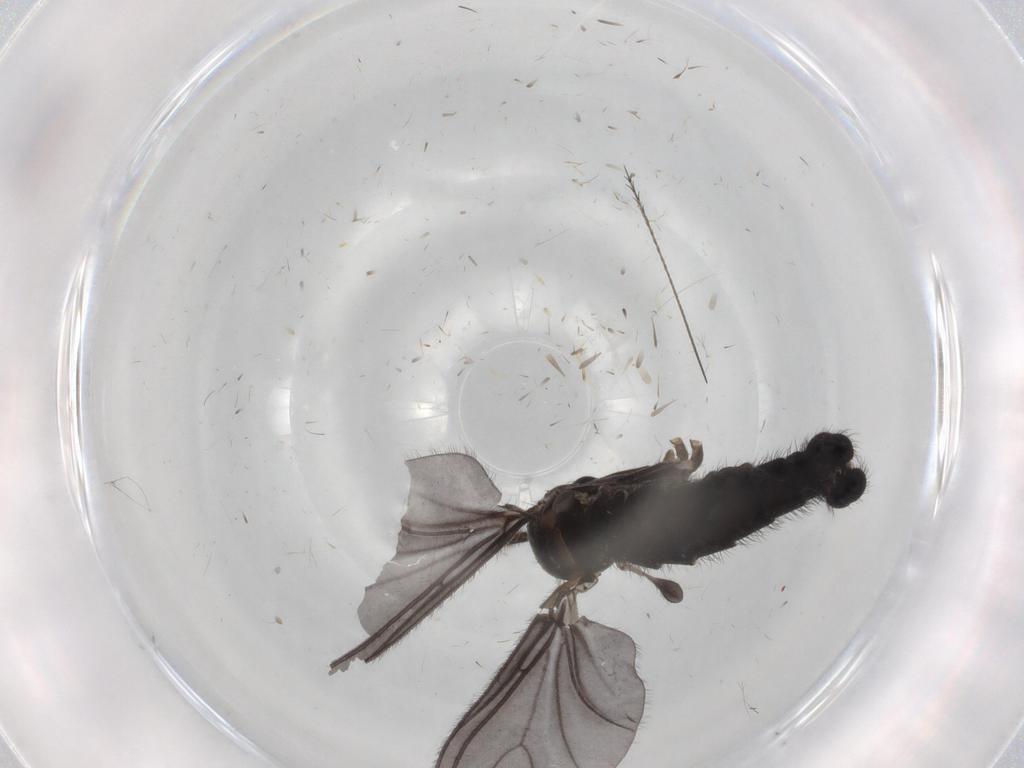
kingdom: Animalia
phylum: Arthropoda
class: Insecta
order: Diptera
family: Sciaridae
